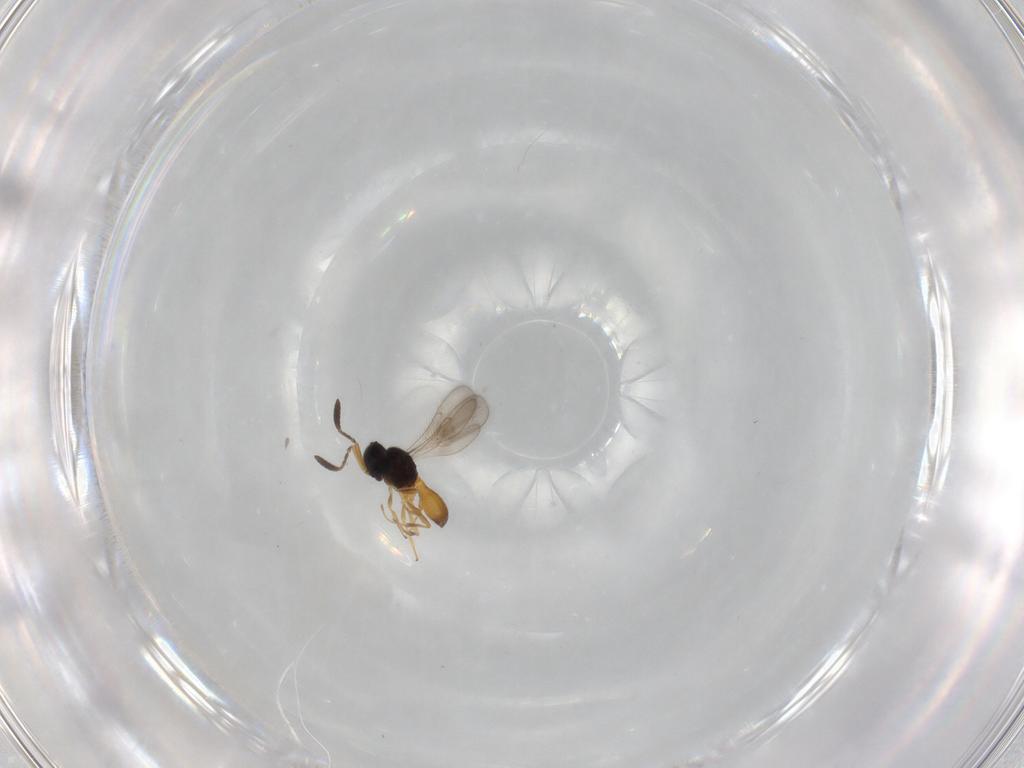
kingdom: Animalia
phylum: Arthropoda
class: Insecta
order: Hymenoptera
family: Scelionidae
